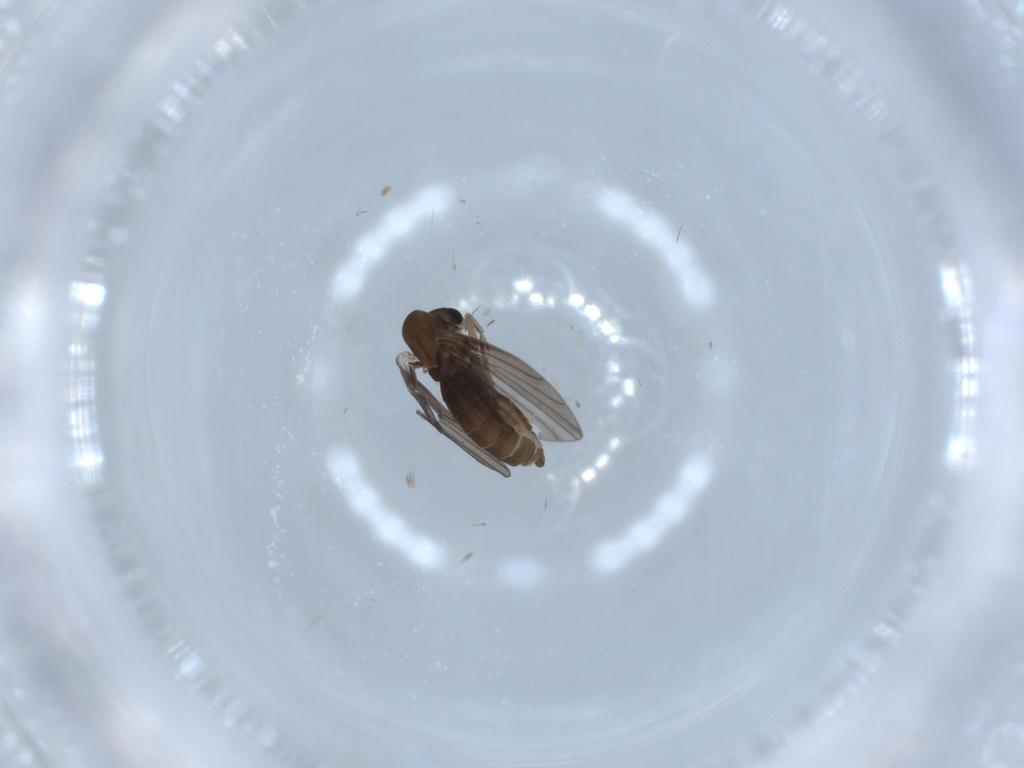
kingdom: Animalia
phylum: Arthropoda
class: Insecta
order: Diptera
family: Psychodidae
